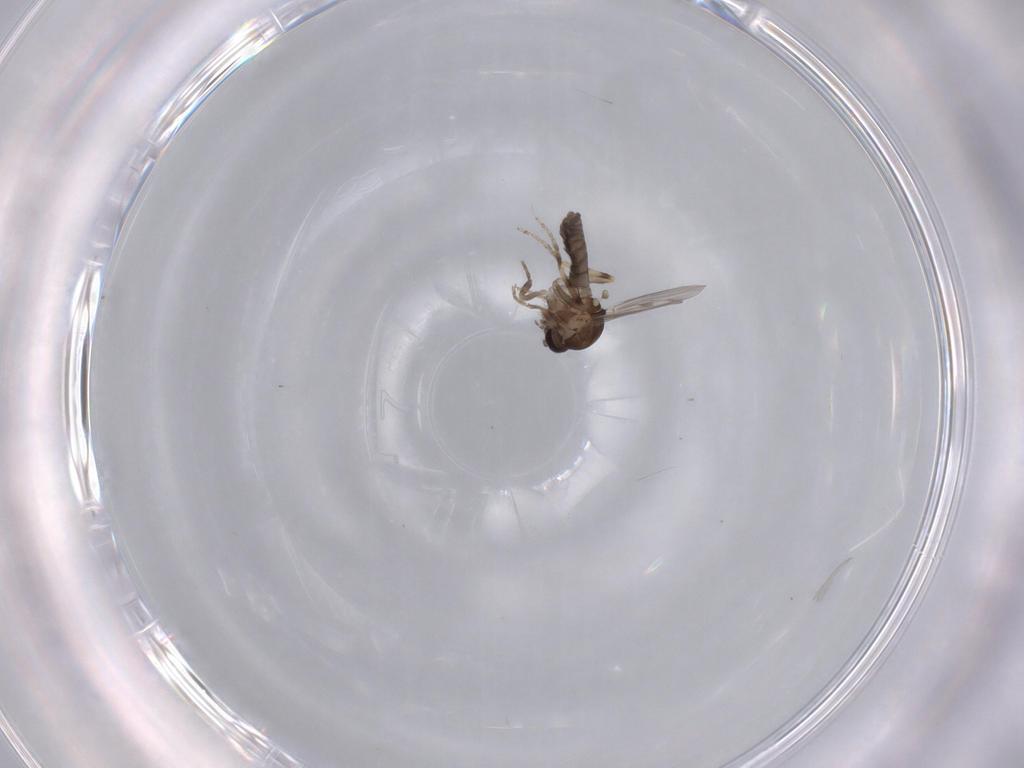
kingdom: Animalia
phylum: Arthropoda
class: Insecta
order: Diptera
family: Ceratopogonidae
